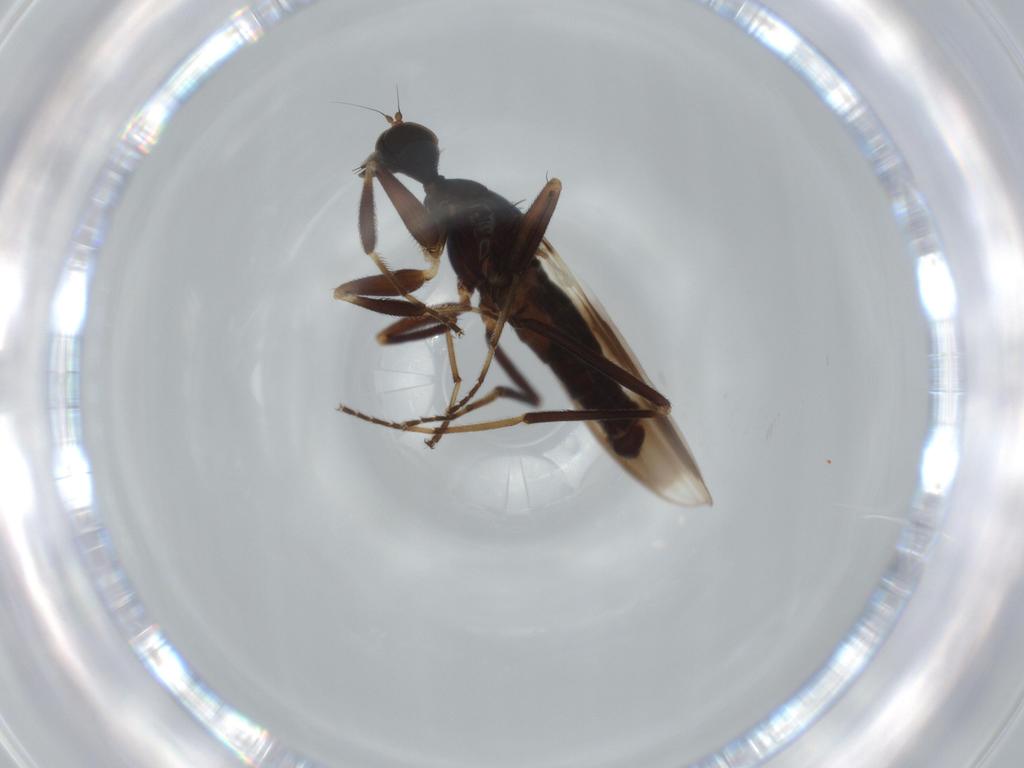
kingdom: Animalia
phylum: Arthropoda
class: Insecta
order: Diptera
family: Hybotidae
